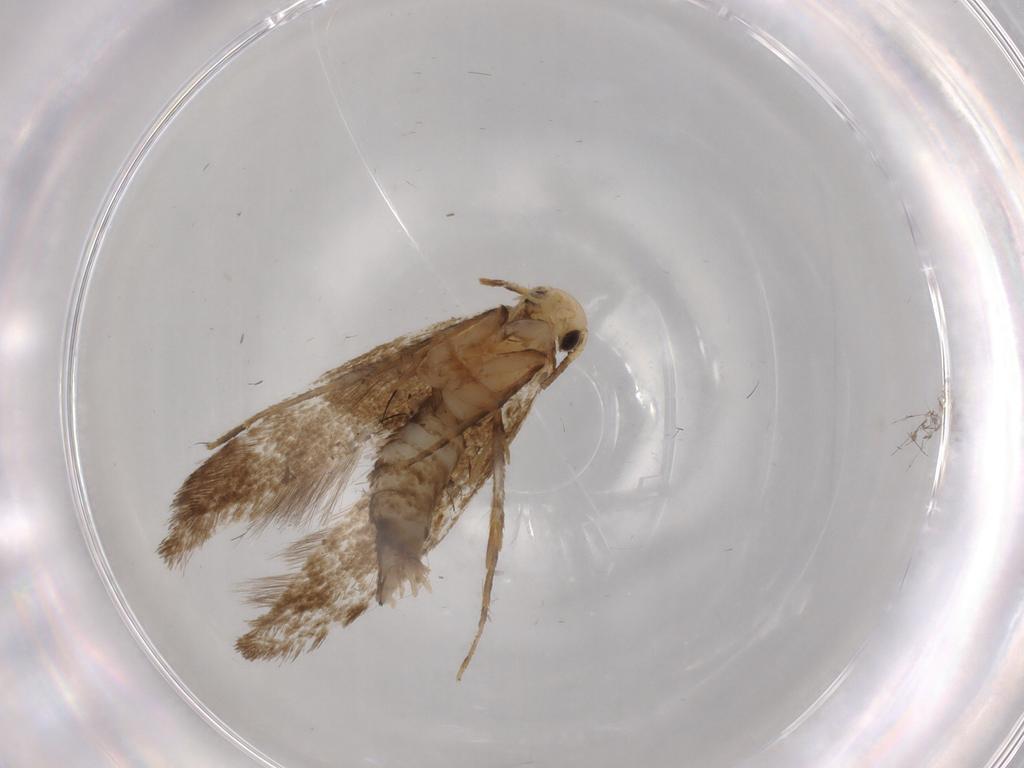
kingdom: Animalia
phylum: Arthropoda
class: Insecta
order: Lepidoptera
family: Tineidae
